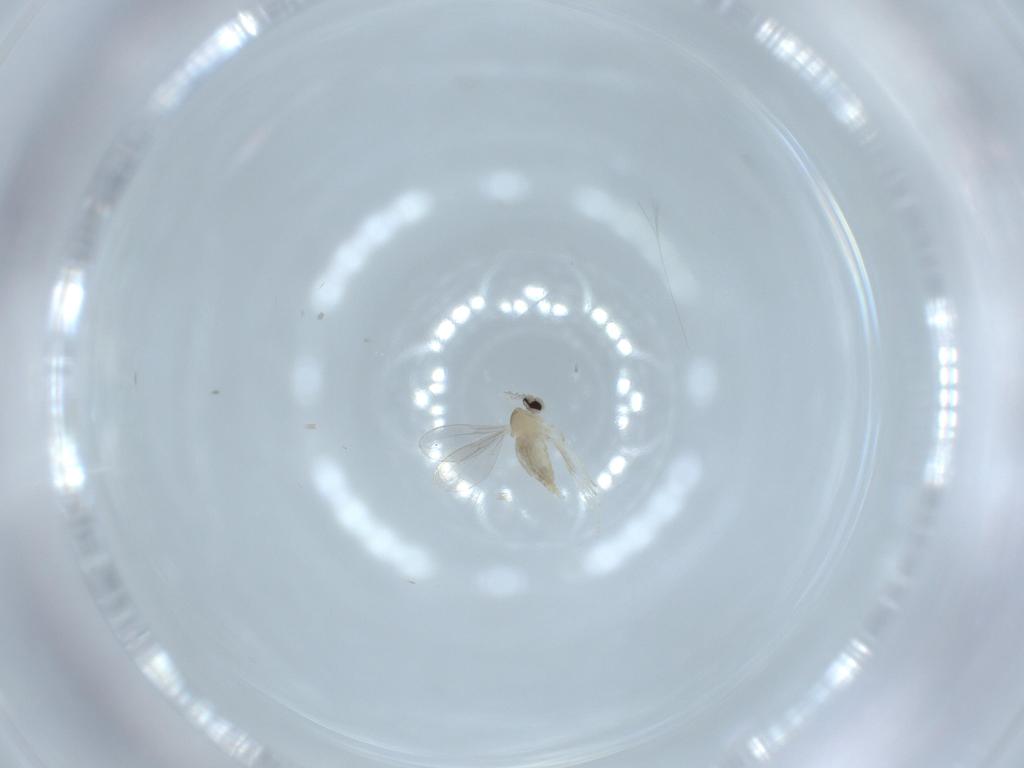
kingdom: Animalia
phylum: Arthropoda
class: Insecta
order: Diptera
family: Cecidomyiidae
